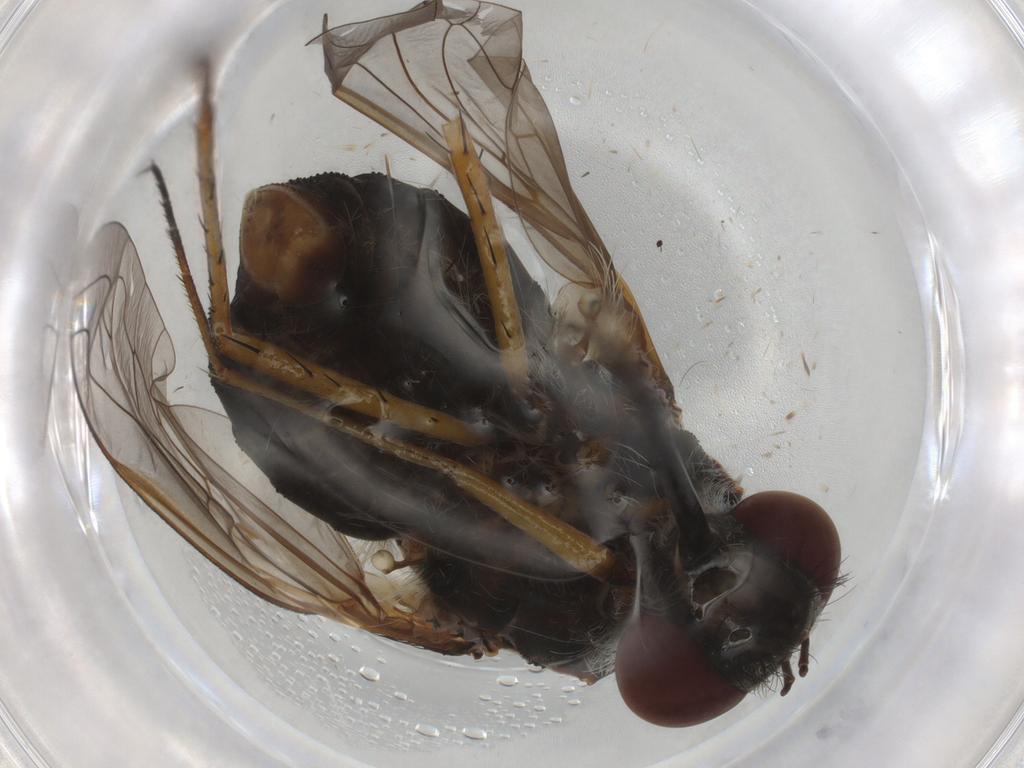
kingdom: Animalia
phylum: Arthropoda
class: Insecta
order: Diptera
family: Bombyliidae
